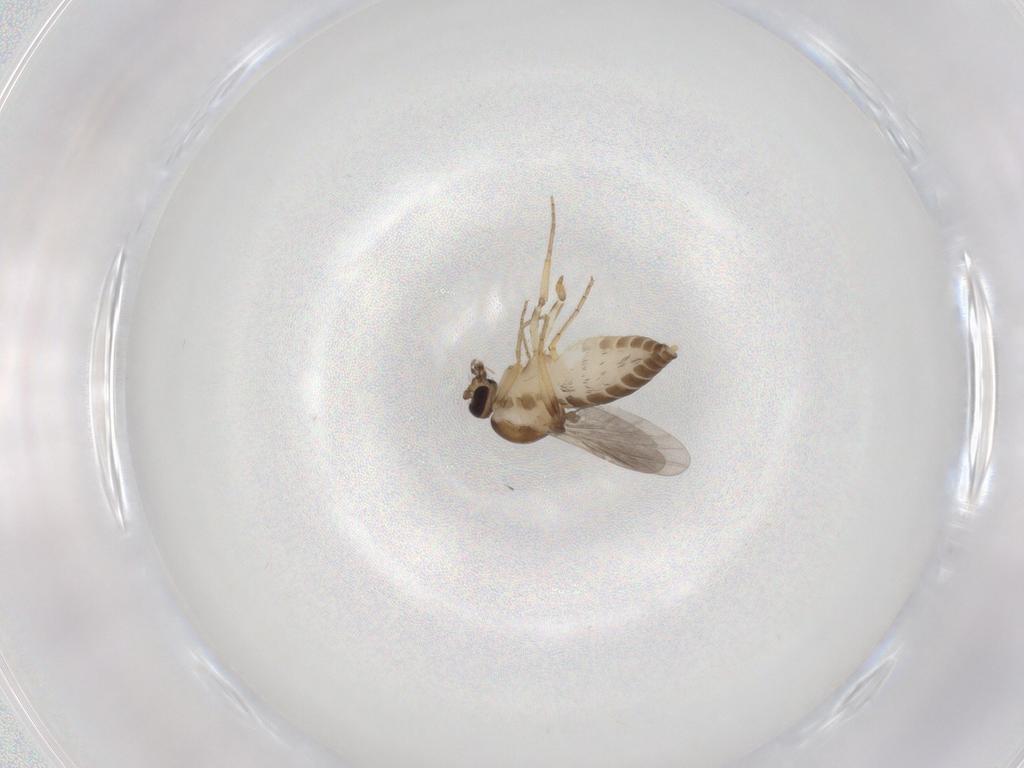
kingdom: Animalia
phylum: Arthropoda
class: Insecta
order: Diptera
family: Ceratopogonidae
